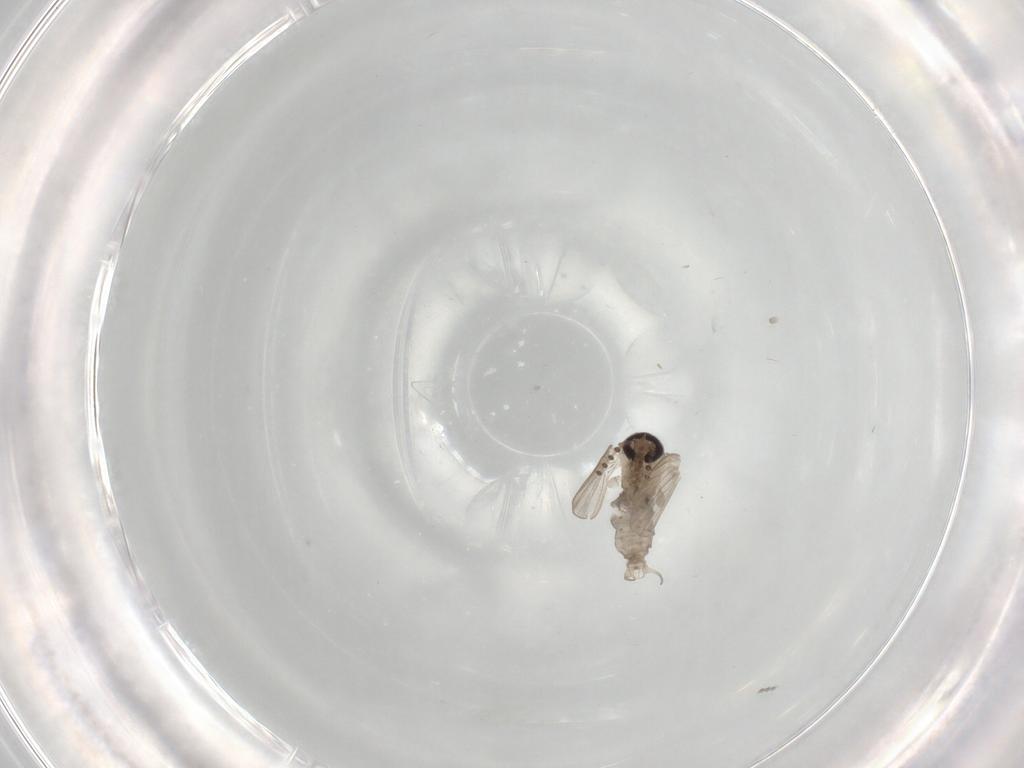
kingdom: Animalia
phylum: Arthropoda
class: Insecta
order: Diptera
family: Psychodidae
